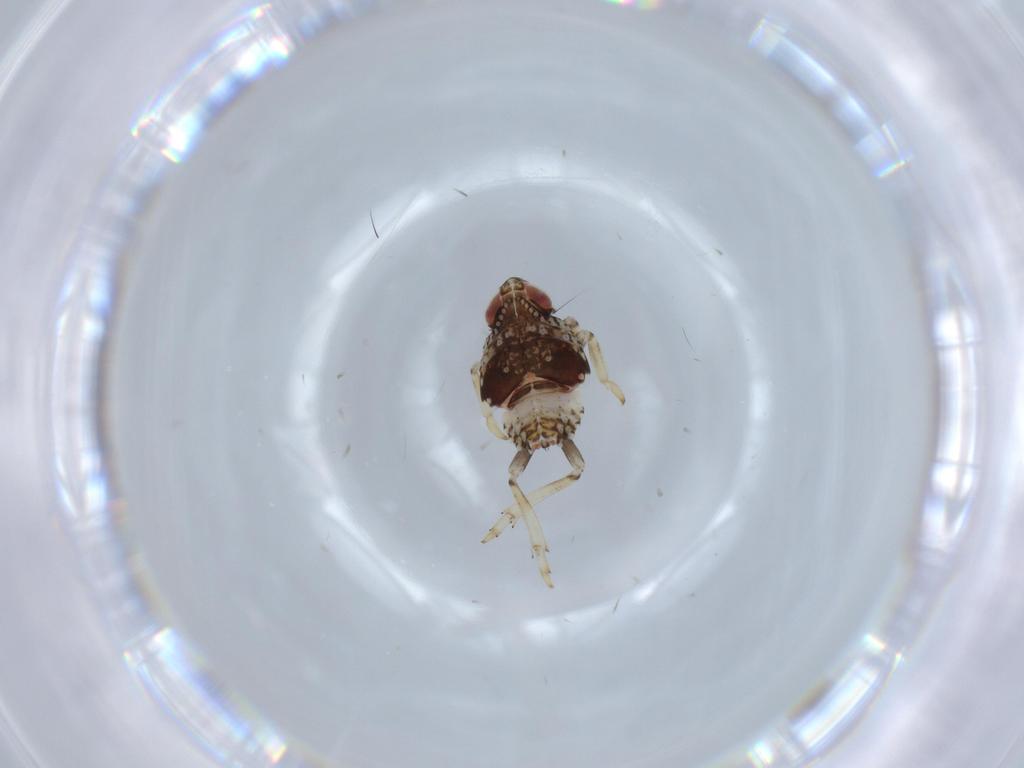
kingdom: Animalia
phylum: Arthropoda
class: Insecta
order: Hemiptera
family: Issidae
